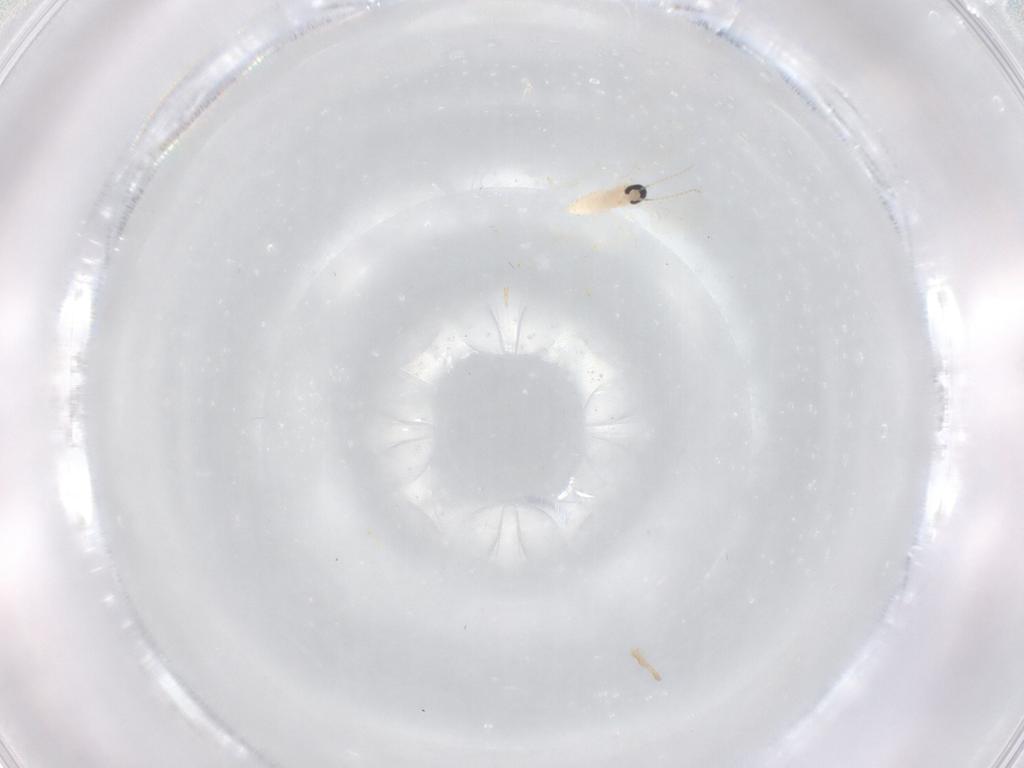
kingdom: Animalia
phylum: Arthropoda
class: Insecta
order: Diptera
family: Cecidomyiidae
